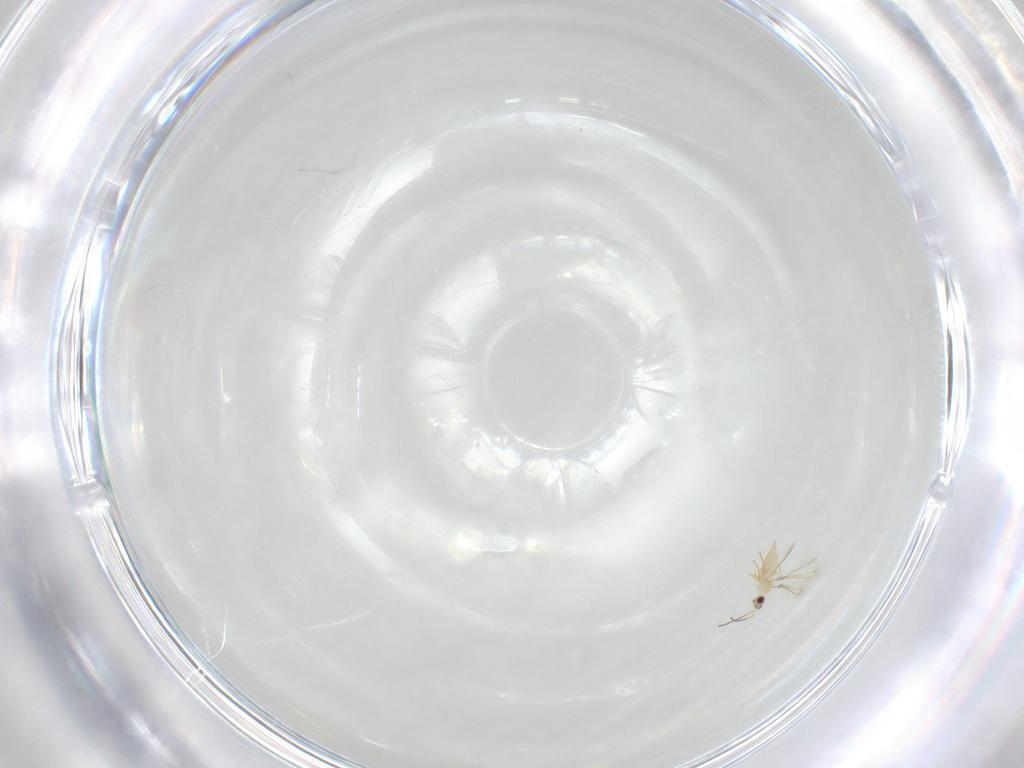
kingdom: Animalia
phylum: Arthropoda
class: Insecta
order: Hymenoptera
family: Mymaridae
